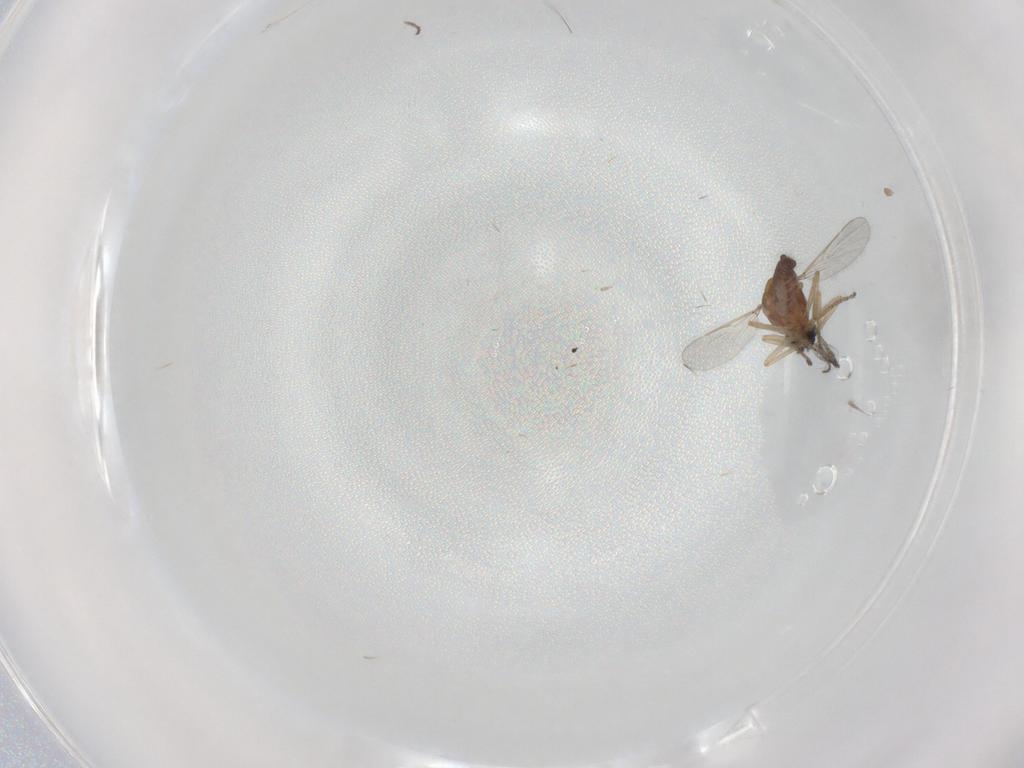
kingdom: Animalia
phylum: Arthropoda
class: Insecta
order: Diptera
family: Ceratopogonidae
